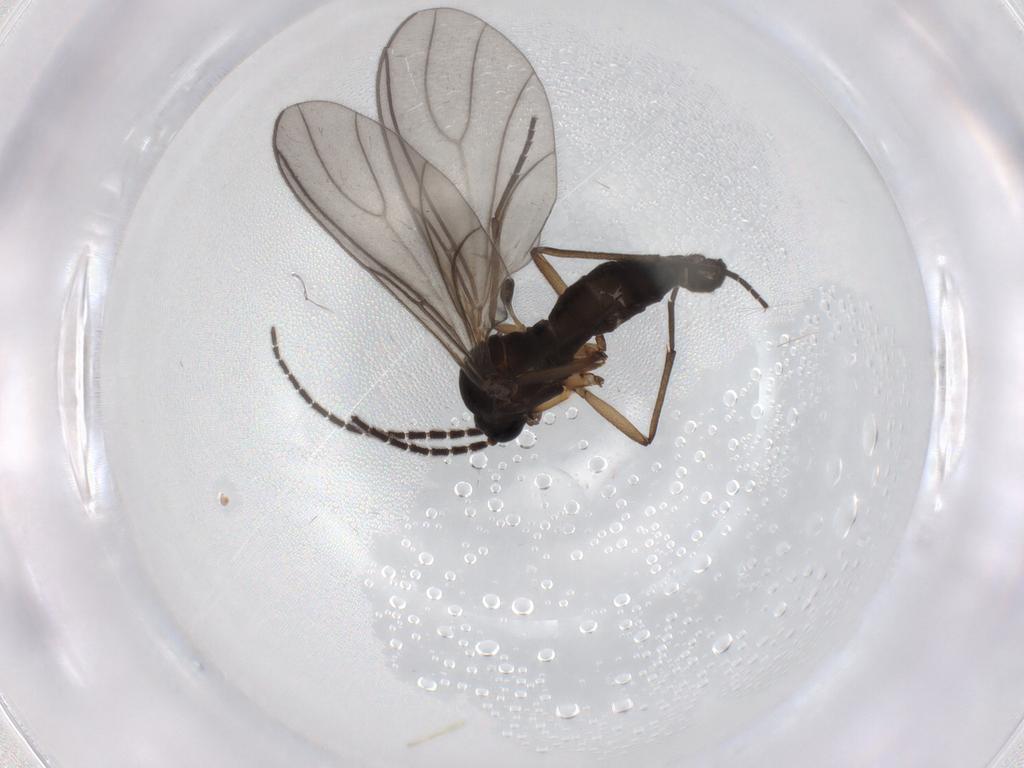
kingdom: Animalia
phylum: Arthropoda
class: Insecta
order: Diptera
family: Sciaridae
